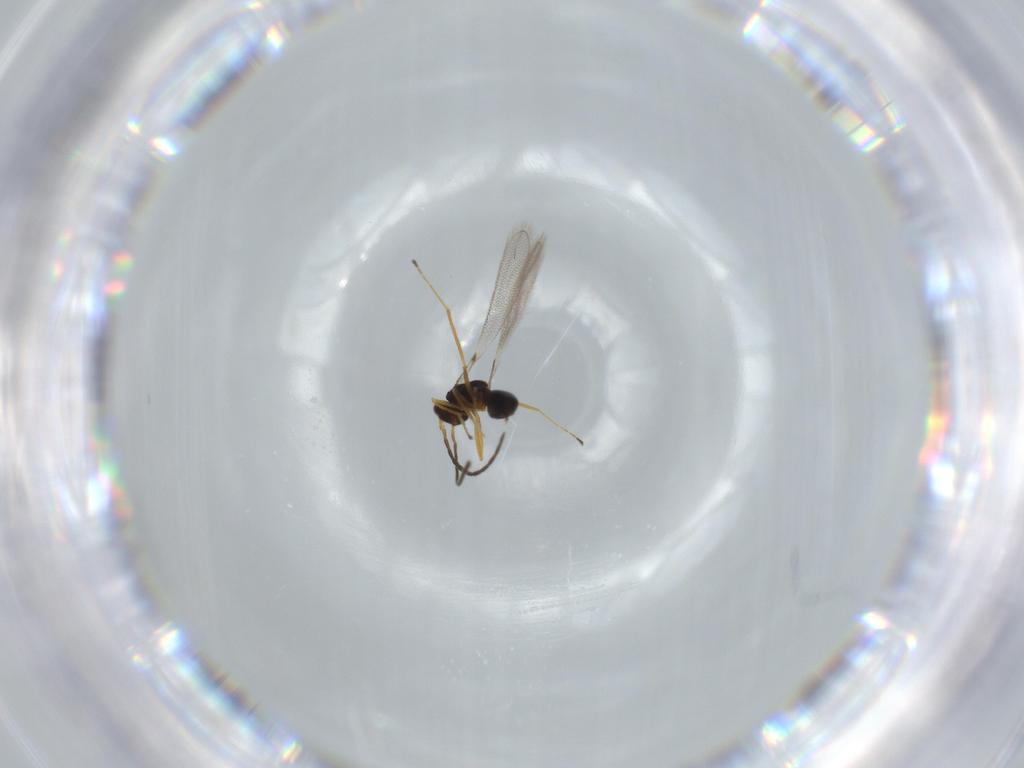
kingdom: Animalia
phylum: Arthropoda
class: Insecta
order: Hymenoptera
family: Mymaridae
